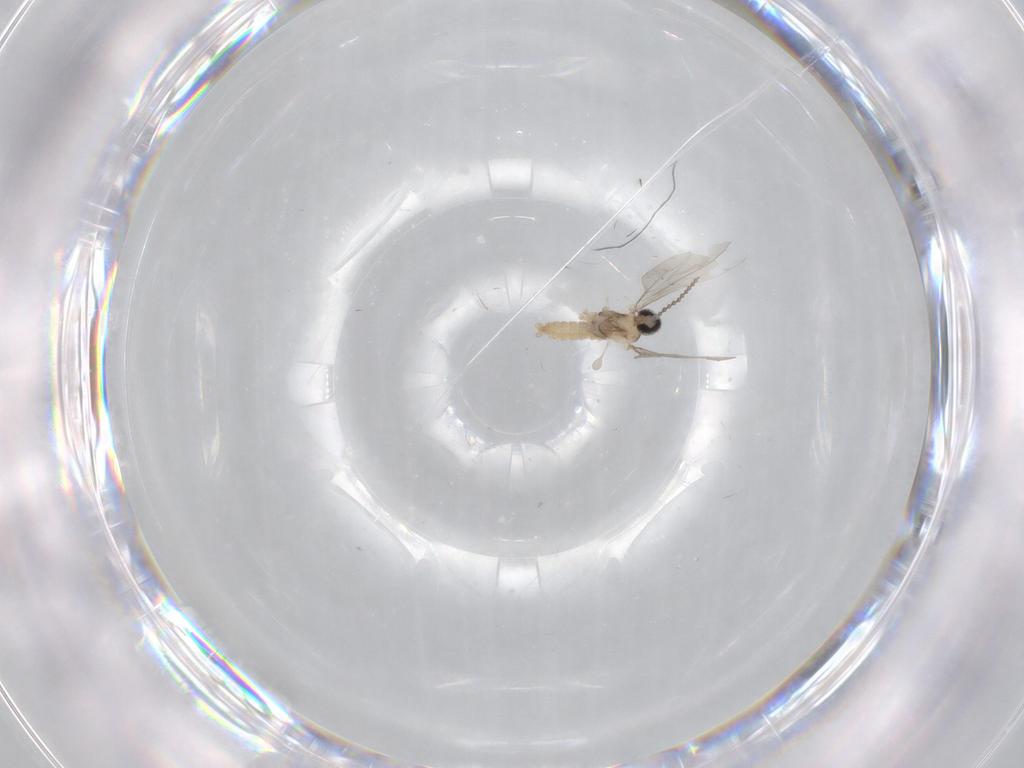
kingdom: Animalia
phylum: Arthropoda
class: Insecta
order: Diptera
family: Cecidomyiidae
